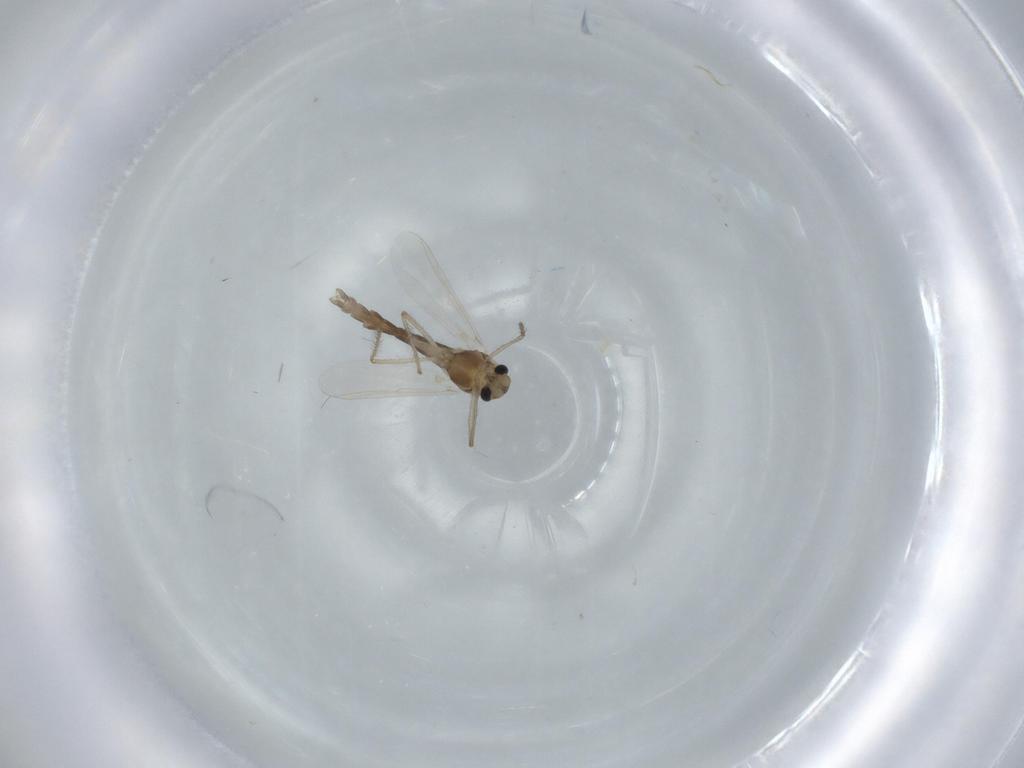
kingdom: Animalia
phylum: Arthropoda
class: Insecta
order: Diptera
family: Chironomidae
